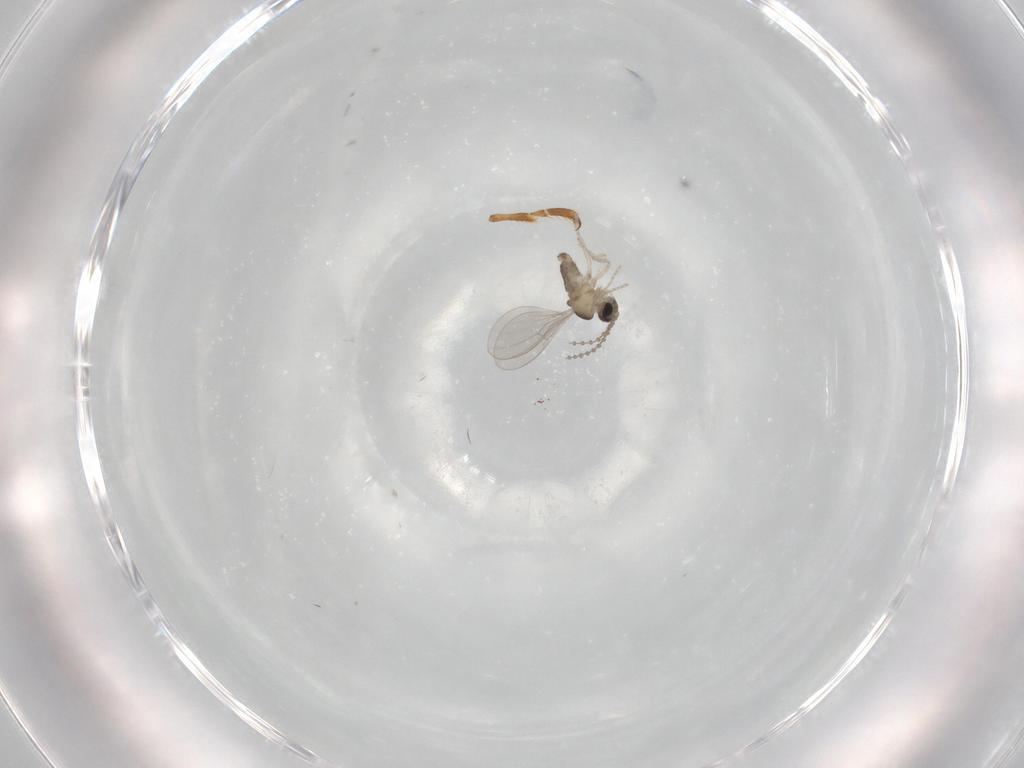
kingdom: Animalia
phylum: Arthropoda
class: Insecta
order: Diptera
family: Cecidomyiidae
